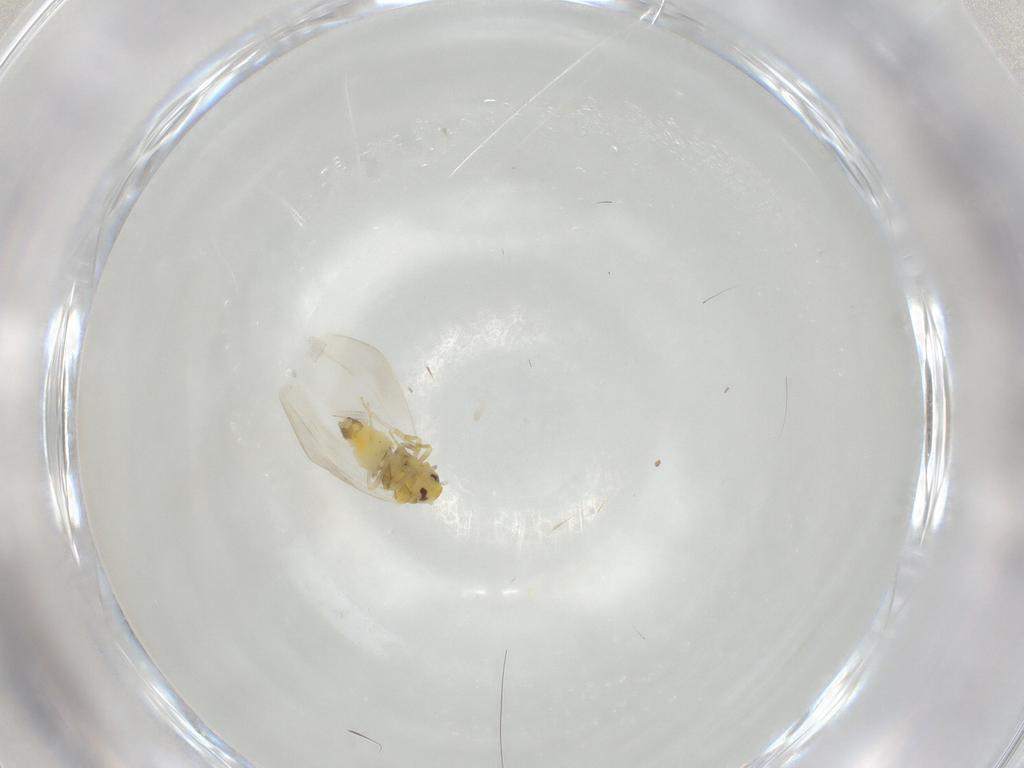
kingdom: Animalia
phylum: Arthropoda
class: Insecta
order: Hemiptera
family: Aleyrodidae
